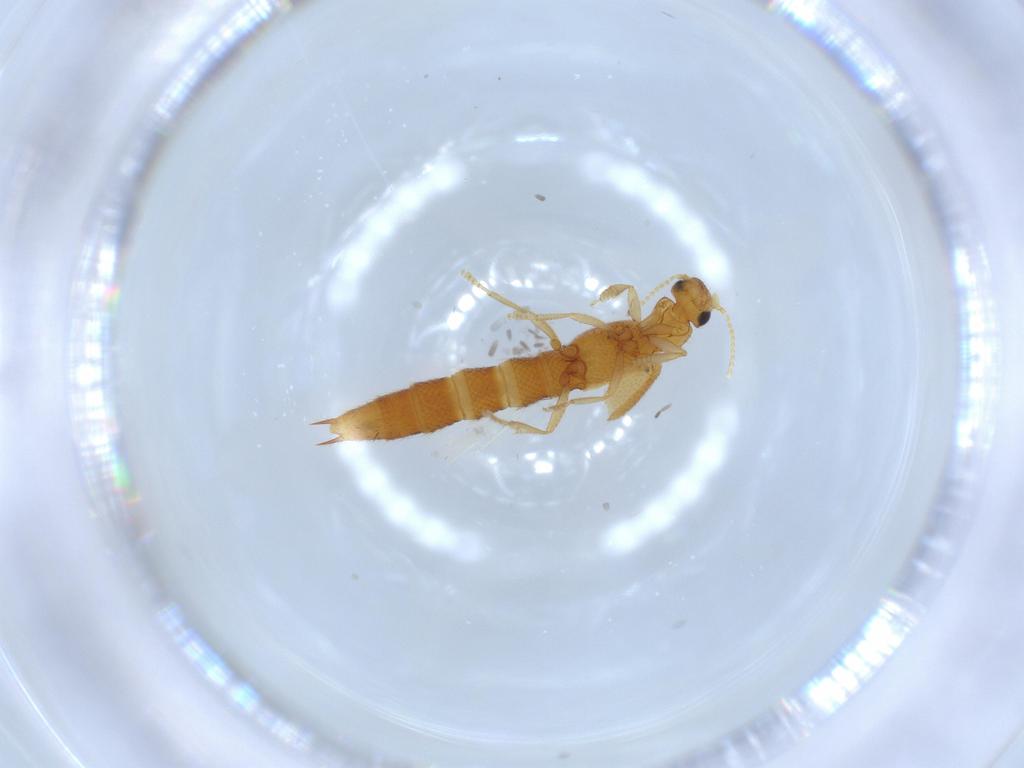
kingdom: Animalia
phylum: Arthropoda
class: Insecta
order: Coleoptera
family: Staphylinidae
